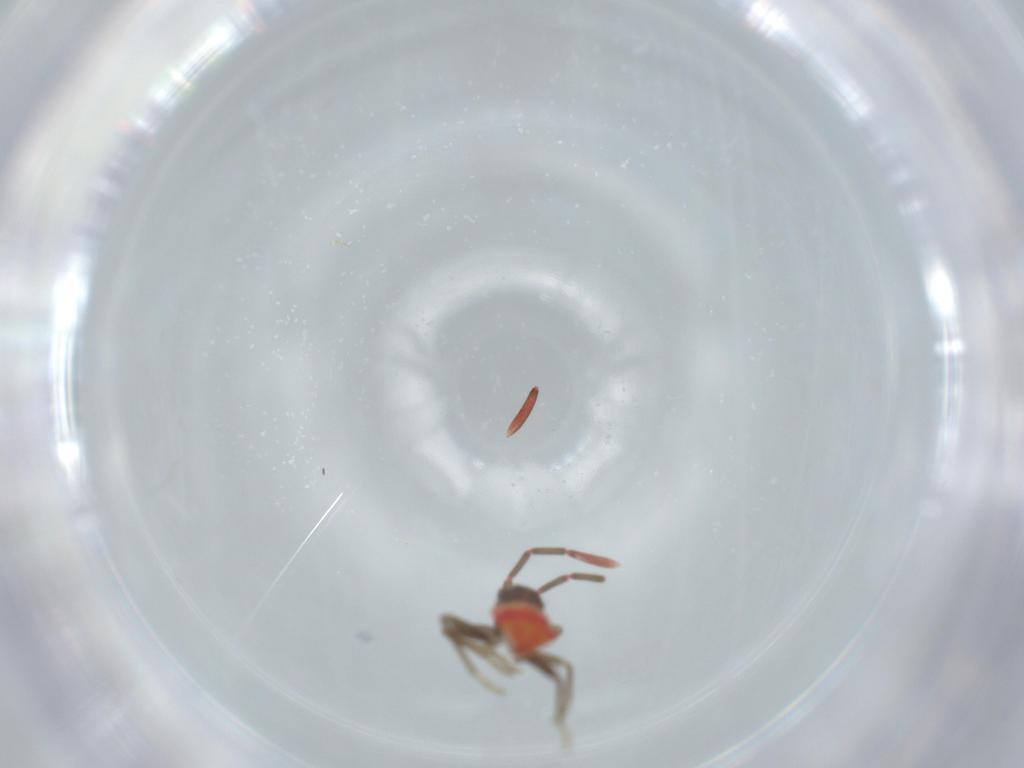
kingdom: Animalia
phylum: Arthropoda
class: Insecta
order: Hemiptera
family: Rhyparochromidae
